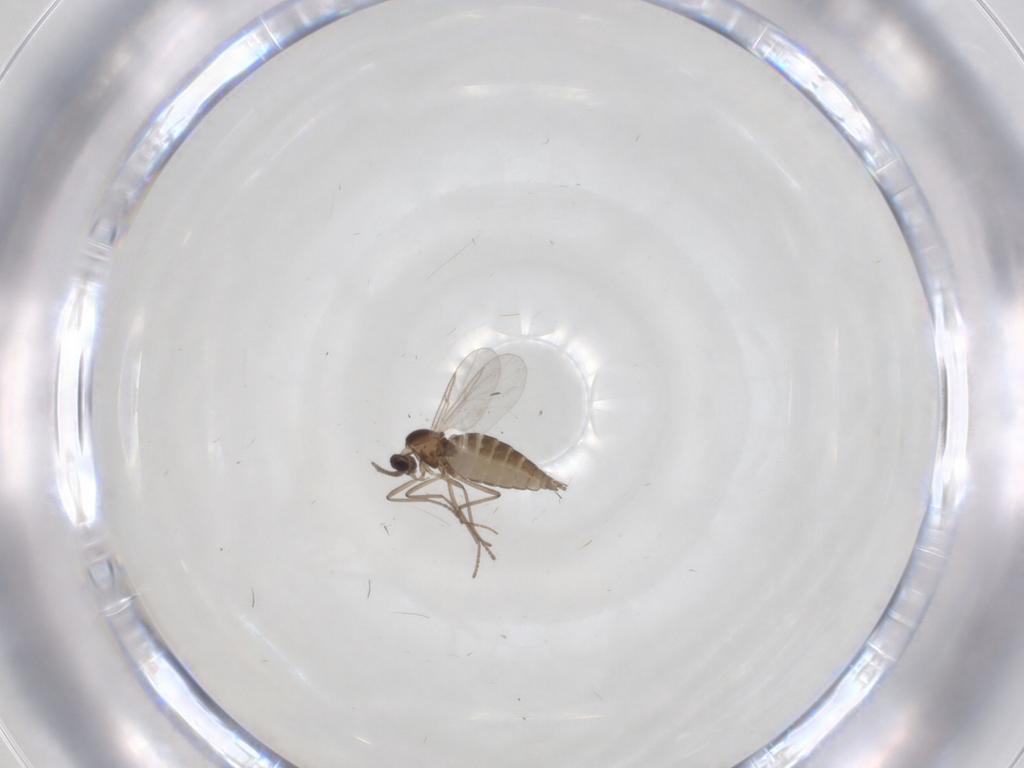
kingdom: Animalia
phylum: Arthropoda
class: Insecta
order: Diptera
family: Cecidomyiidae
